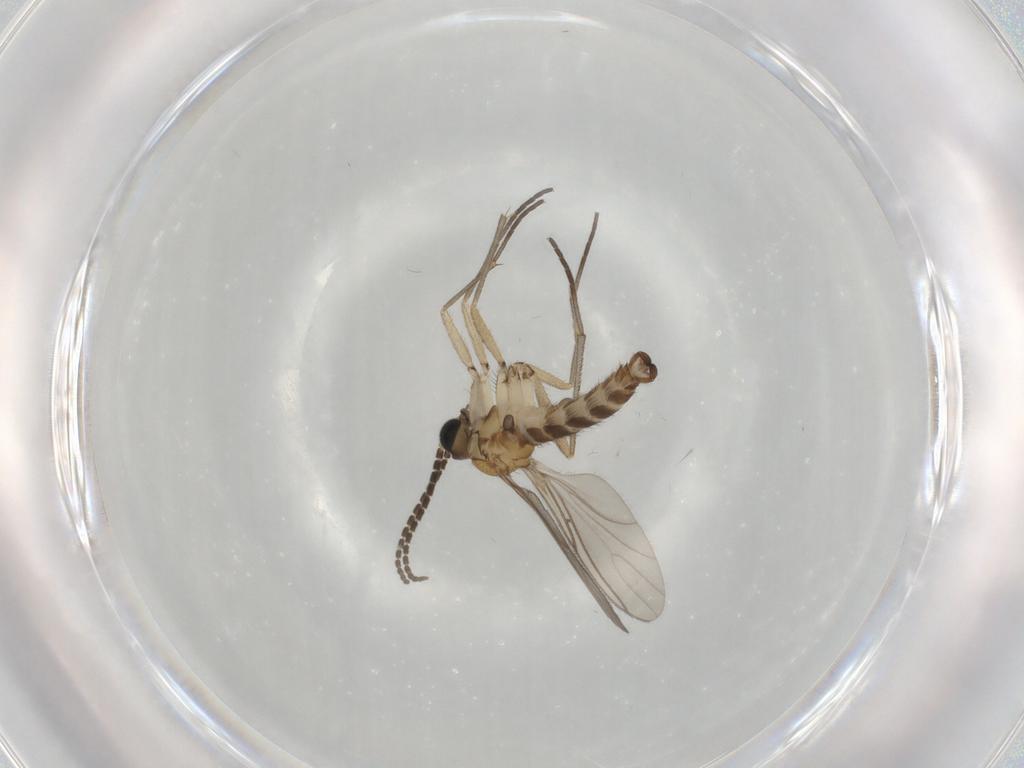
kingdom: Animalia
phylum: Arthropoda
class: Insecta
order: Diptera
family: Sciaridae
